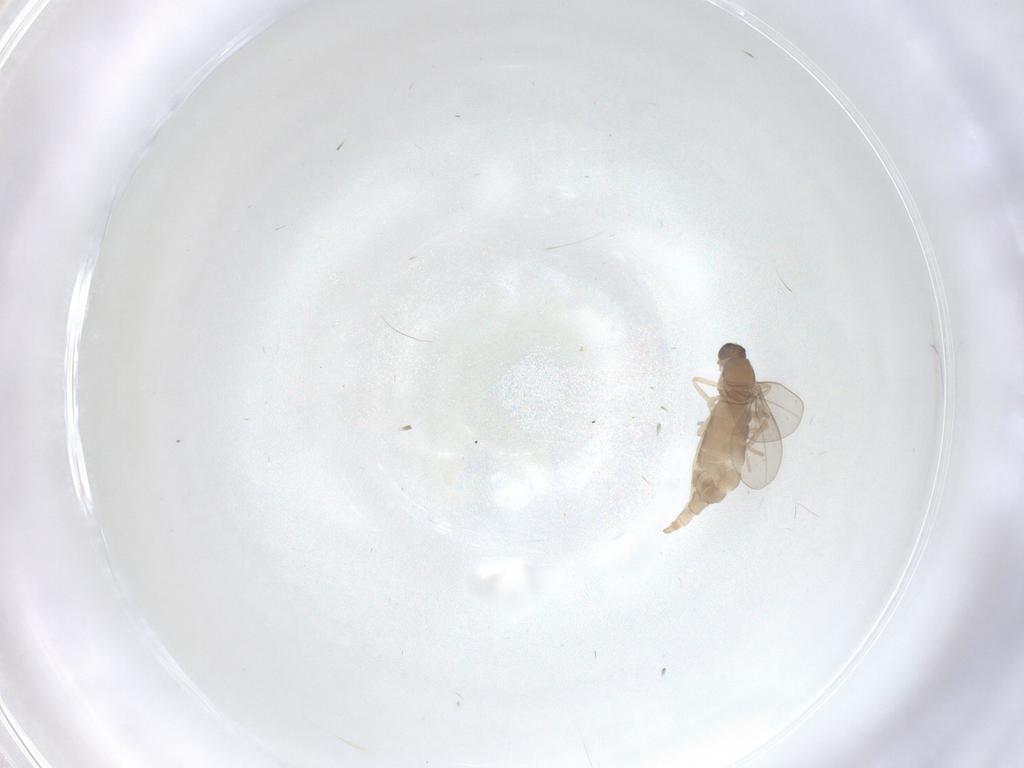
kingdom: Animalia
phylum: Arthropoda
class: Insecta
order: Diptera
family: Cecidomyiidae
